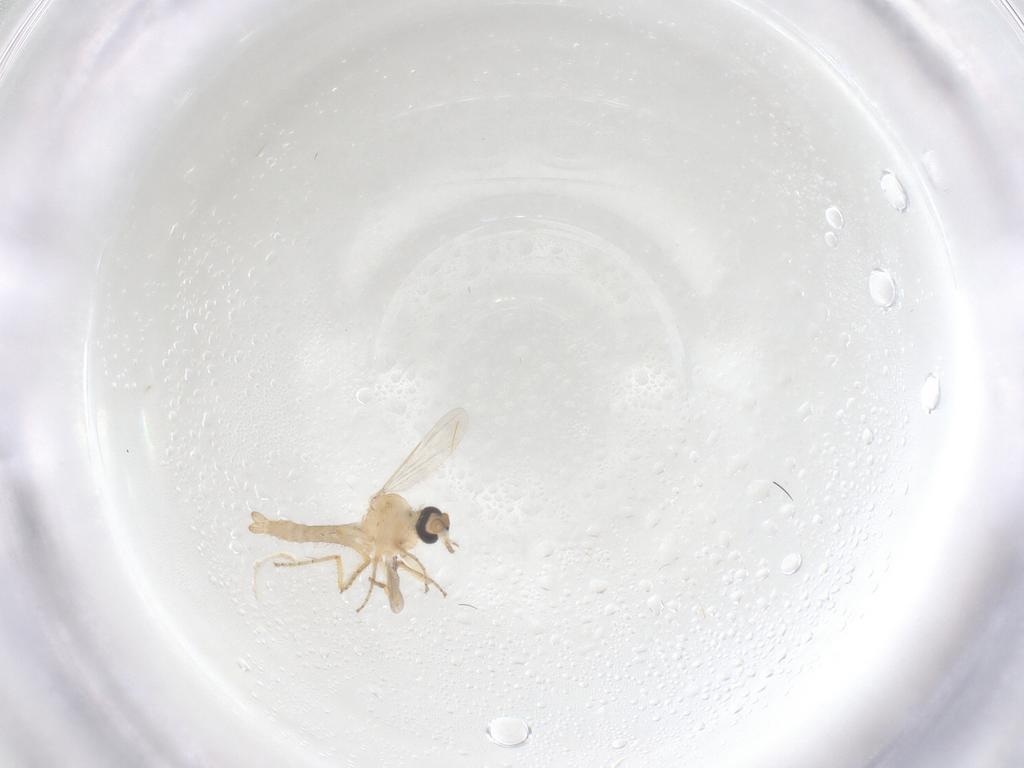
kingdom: Animalia
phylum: Arthropoda
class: Insecta
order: Diptera
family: Ceratopogonidae
